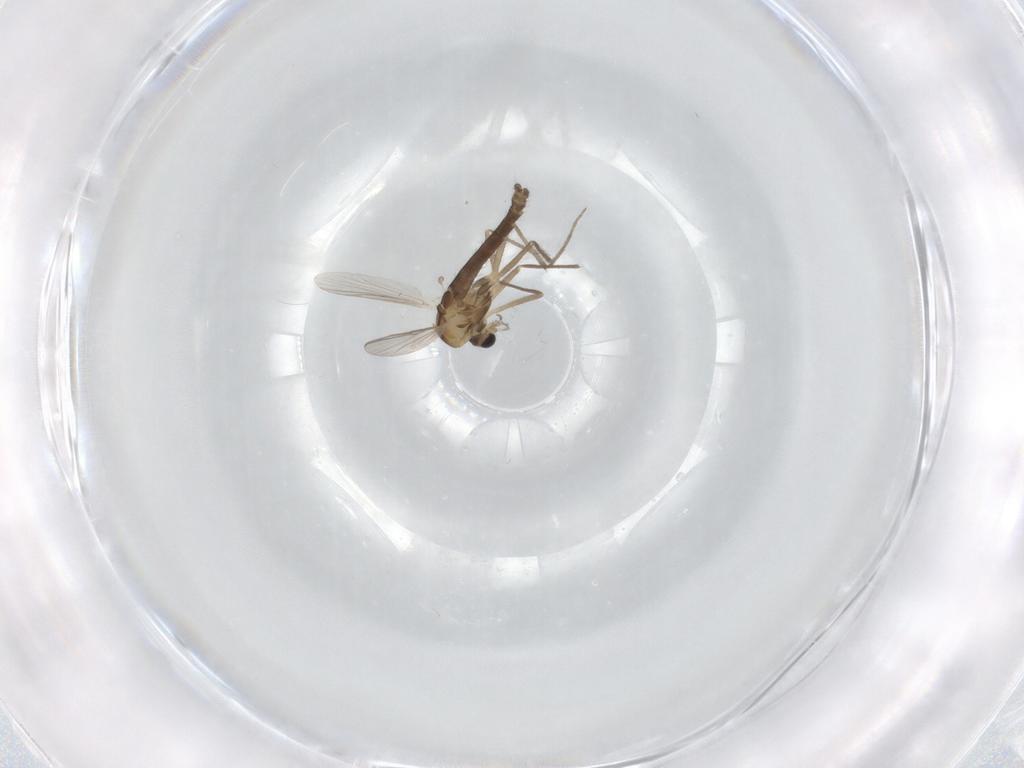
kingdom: Animalia
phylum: Arthropoda
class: Insecta
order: Diptera
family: Chironomidae
